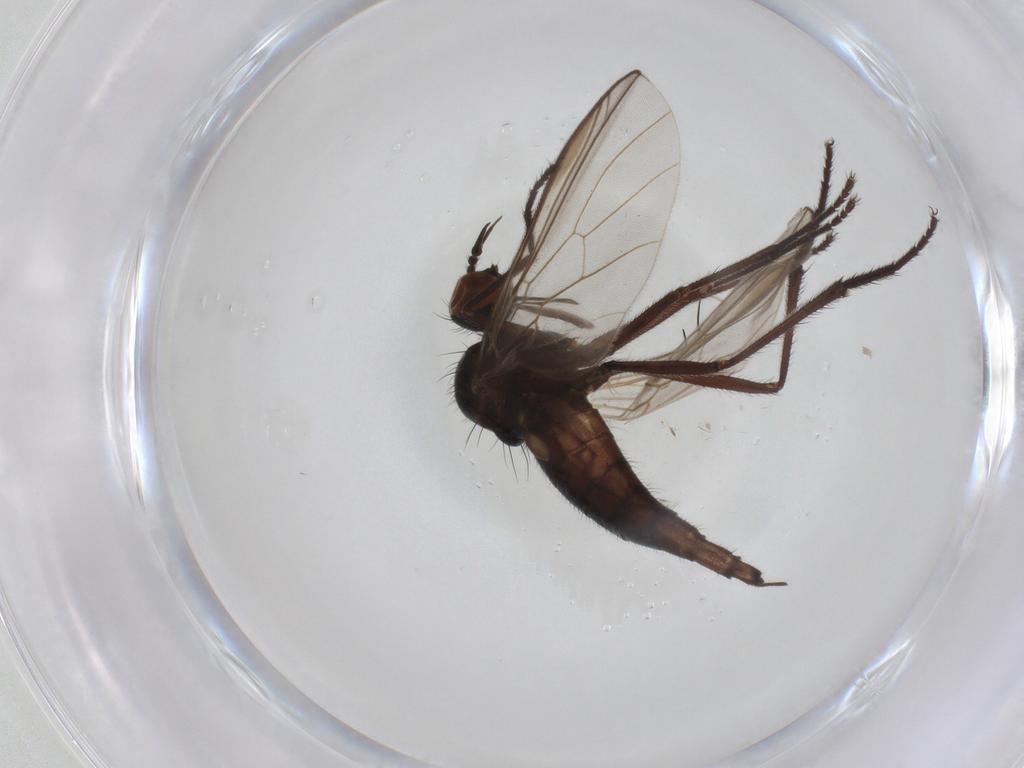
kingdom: Animalia
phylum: Arthropoda
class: Insecta
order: Diptera
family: Empididae
